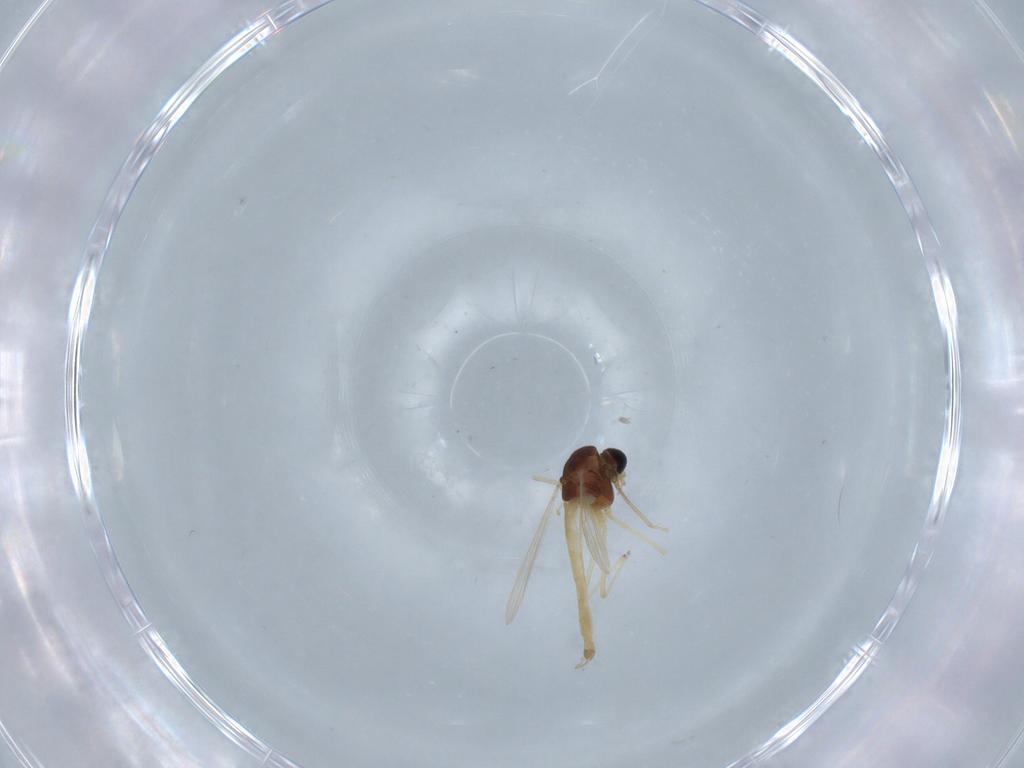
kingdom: Animalia
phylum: Arthropoda
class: Insecta
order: Diptera
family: Chironomidae
